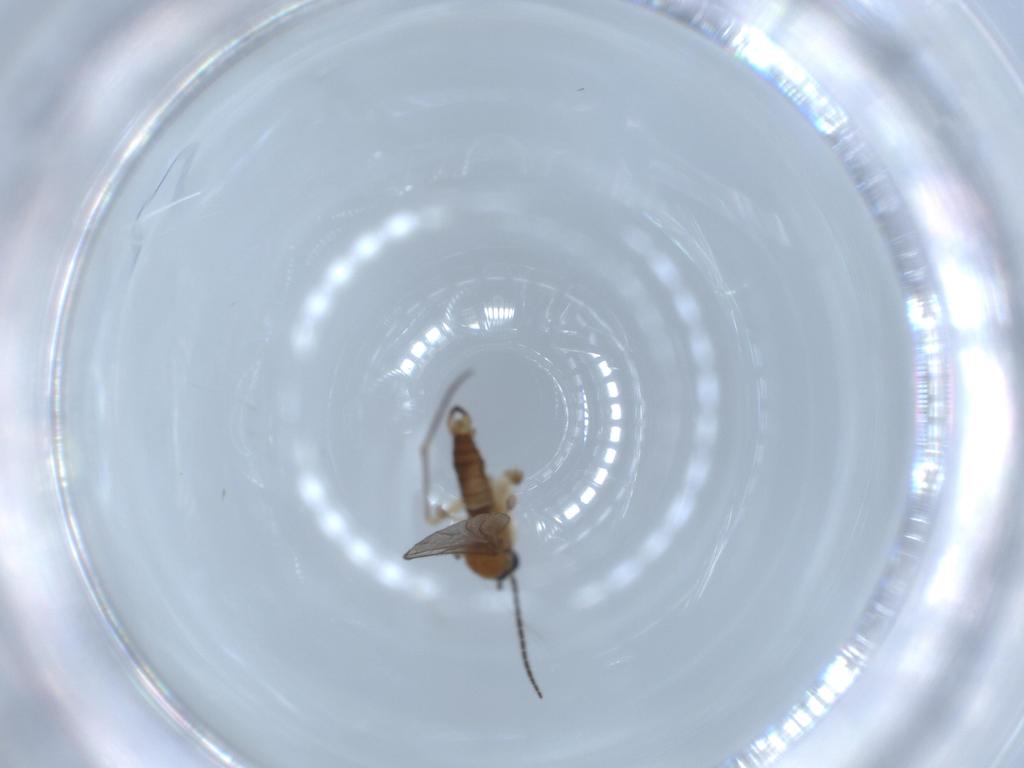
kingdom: Animalia
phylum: Arthropoda
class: Insecta
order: Diptera
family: Sciaridae
